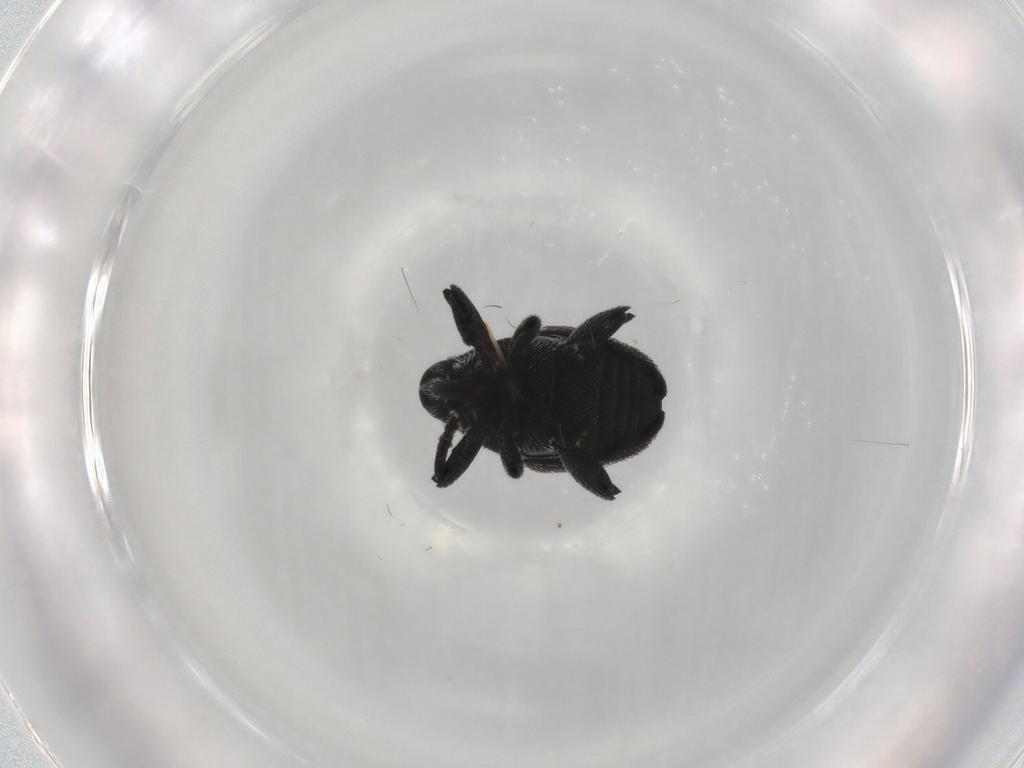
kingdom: Animalia
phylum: Arthropoda
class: Insecta
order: Coleoptera
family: Curculionidae
